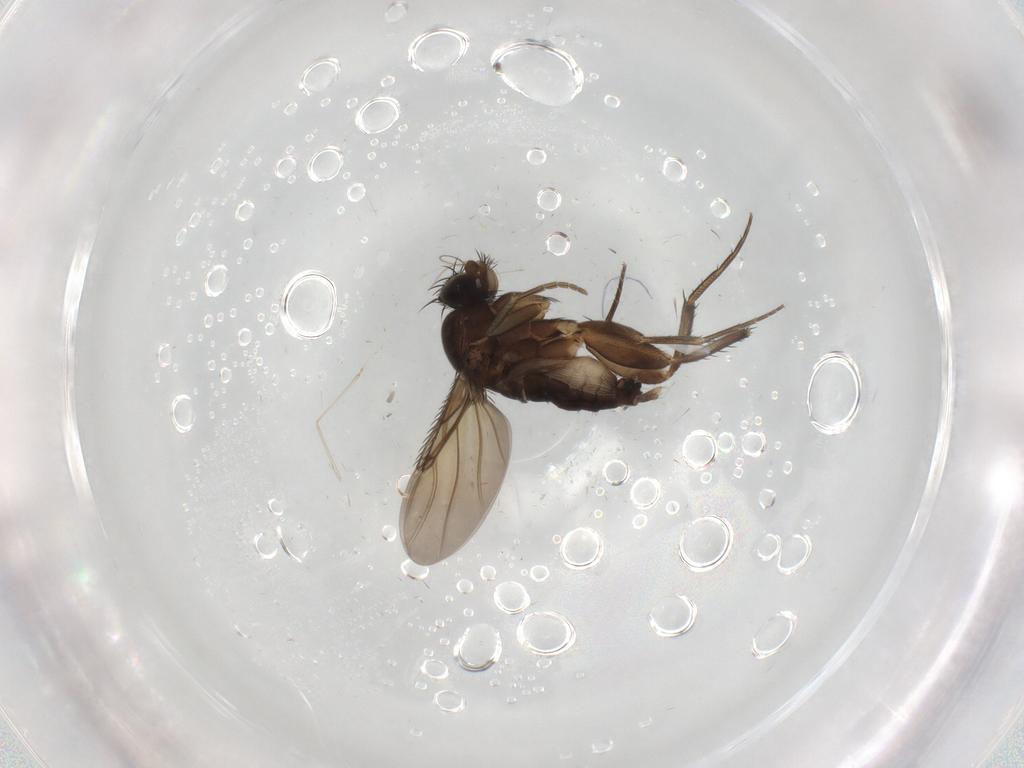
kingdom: Animalia
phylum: Arthropoda
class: Insecta
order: Diptera
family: Phoridae
